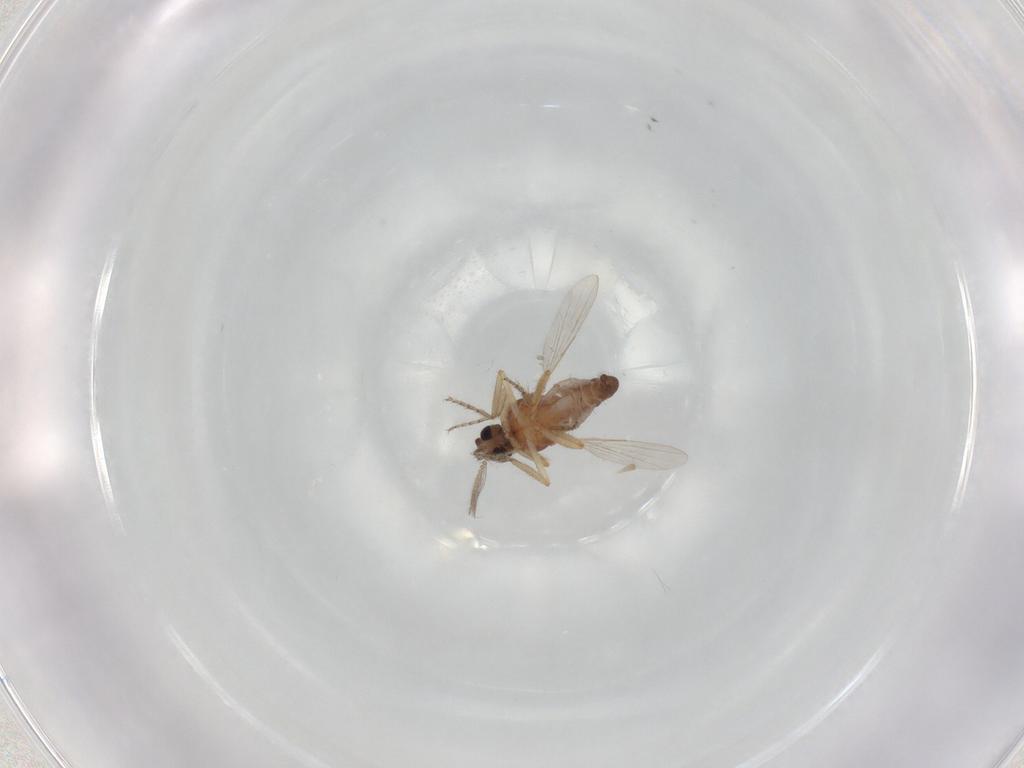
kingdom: Animalia
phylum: Arthropoda
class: Insecta
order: Diptera
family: Ceratopogonidae
